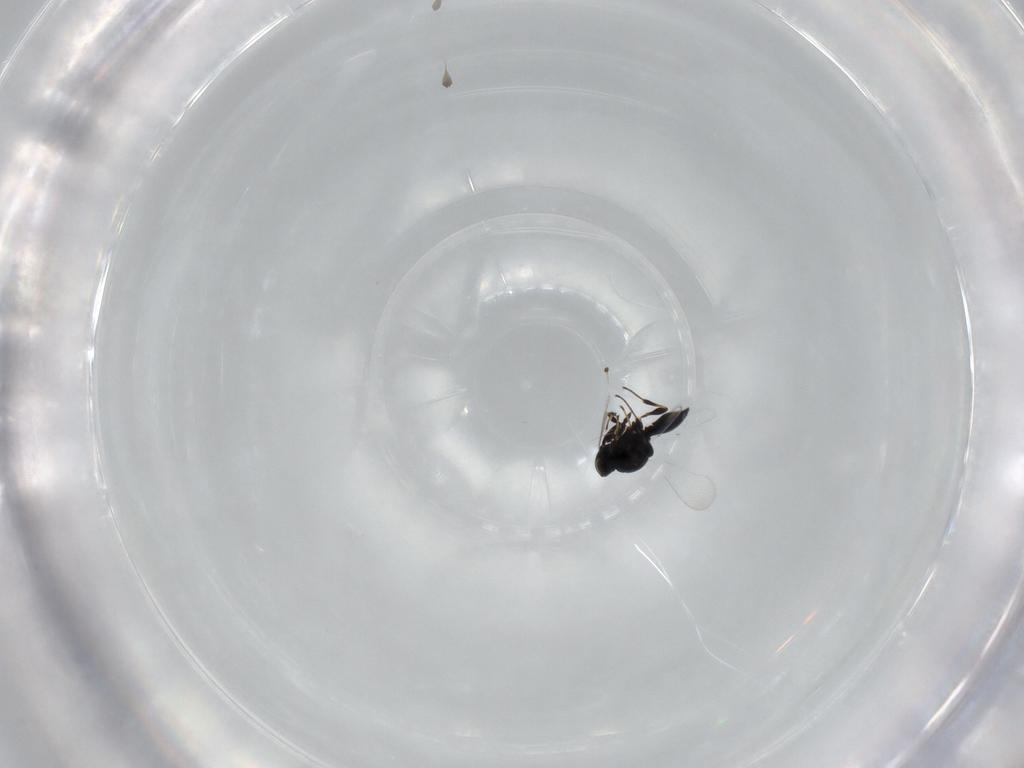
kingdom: Animalia
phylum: Arthropoda
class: Insecta
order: Hymenoptera
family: Platygastridae
